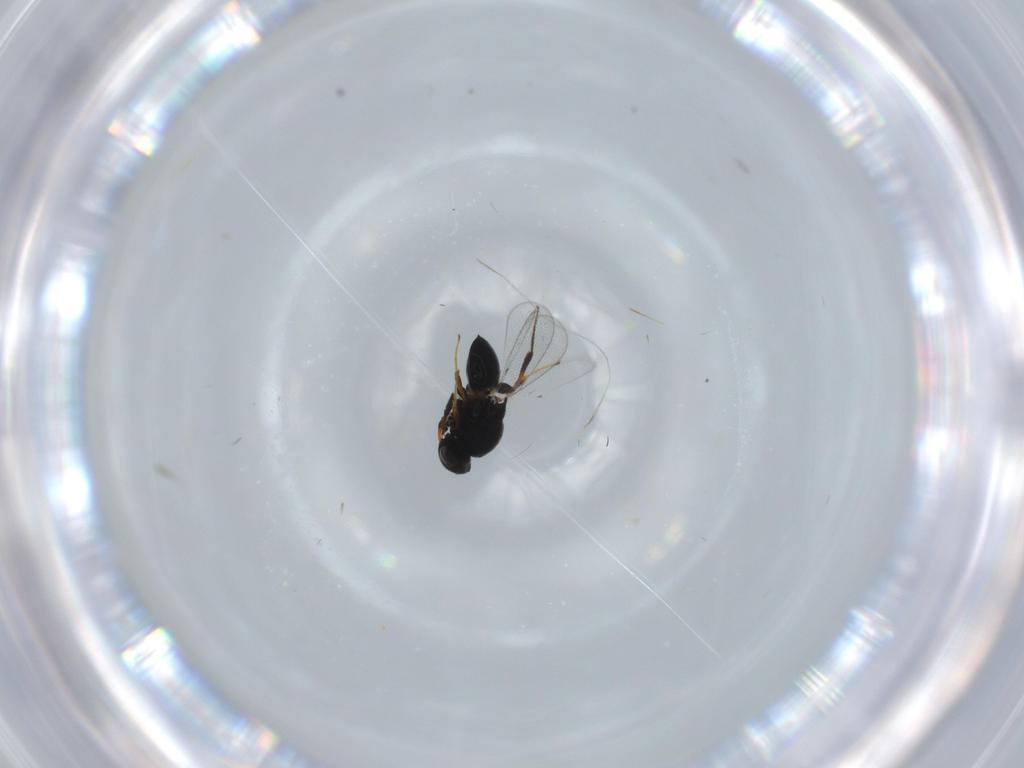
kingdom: Animalia
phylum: Arthropoda
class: Insecta
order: Hymenoptera
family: Platygastridae
